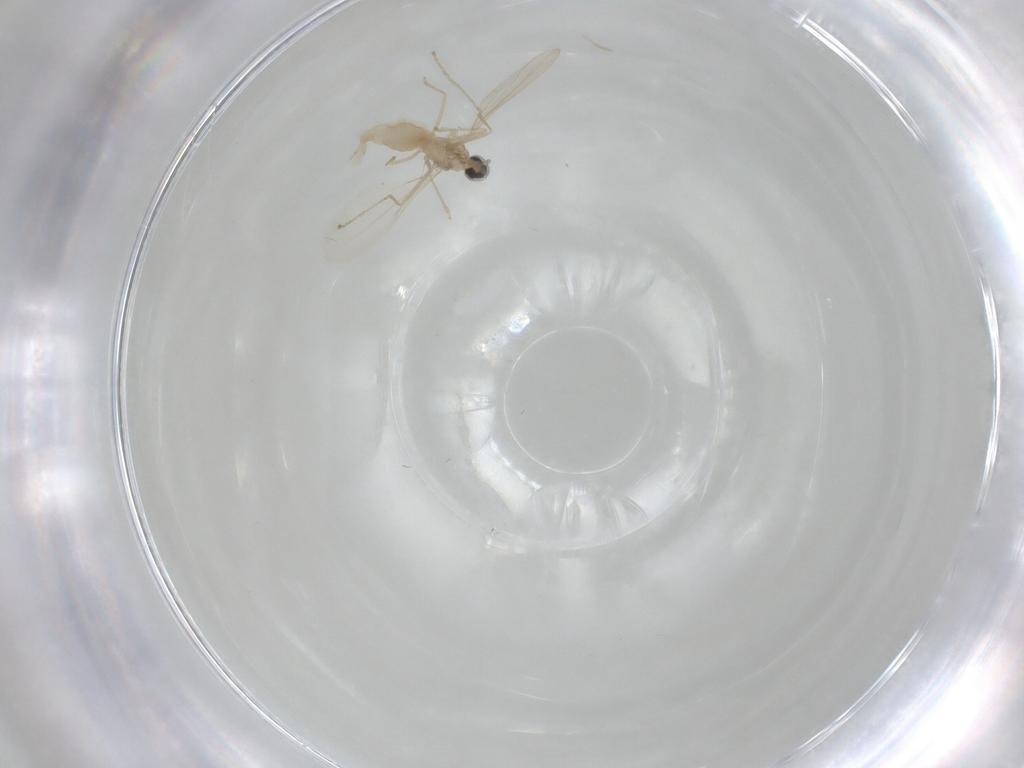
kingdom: Animalia
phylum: Arthropoda
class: Insecta
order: Diptera
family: Cecidomyiidae
